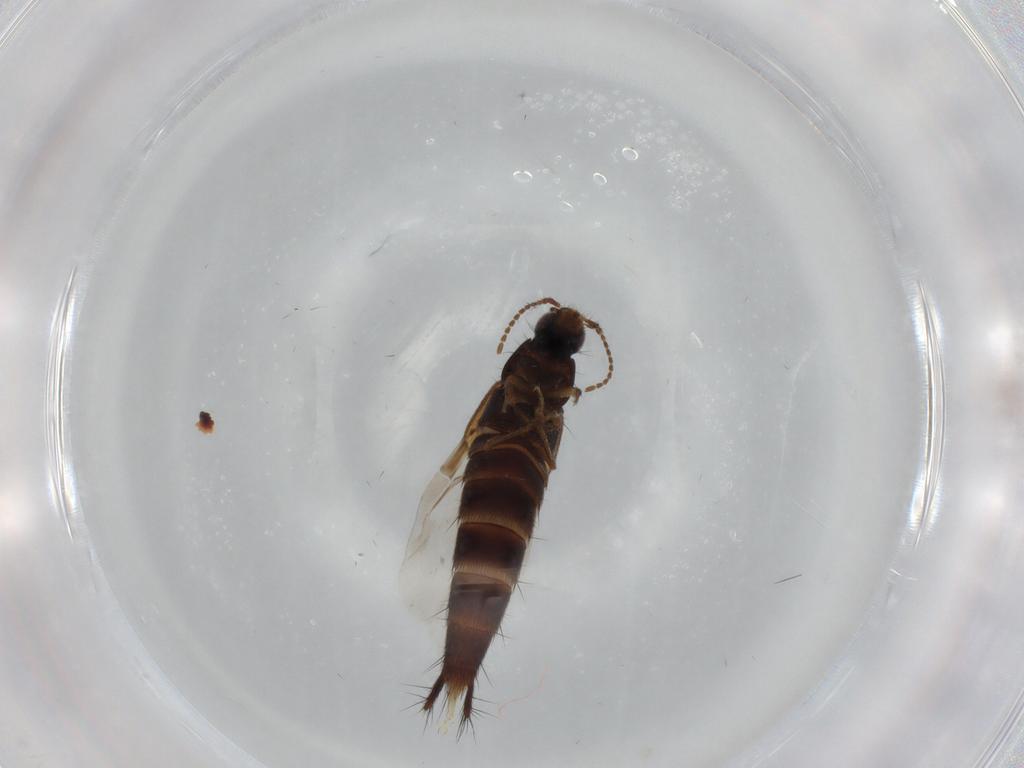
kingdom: Animalia
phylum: Arthropoda
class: Insecta
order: Coleoptera
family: Staphylinidae
